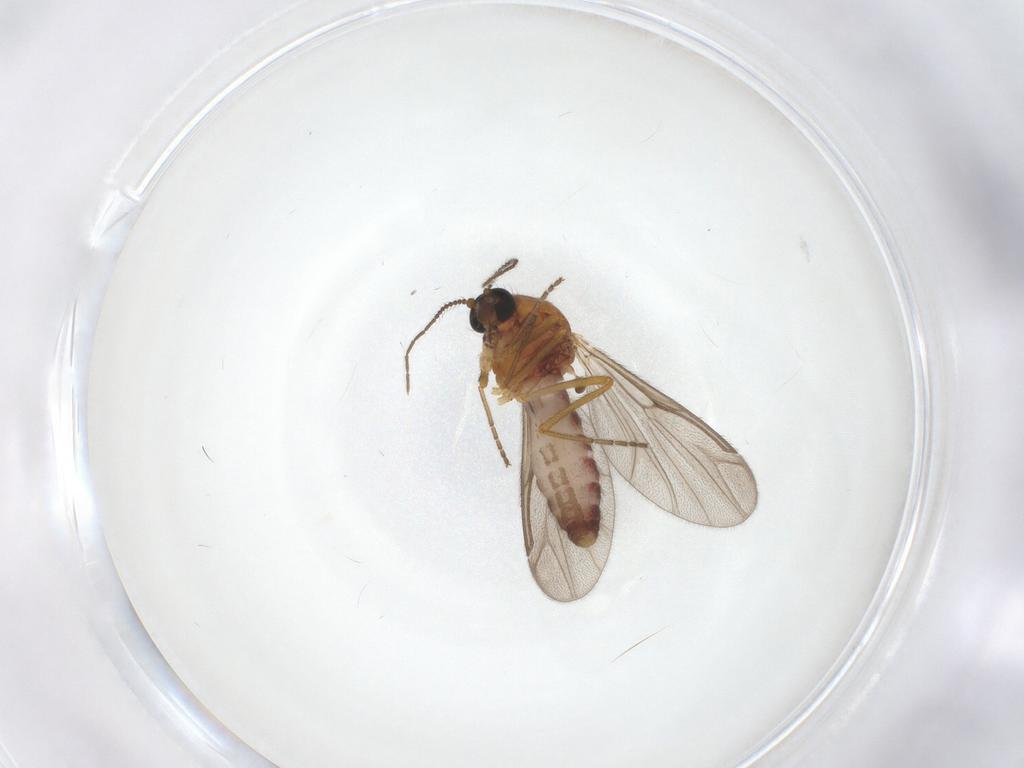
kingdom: Animalia
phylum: Arthropoda
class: Insecta
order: Diptera
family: Ceratopogonidae
